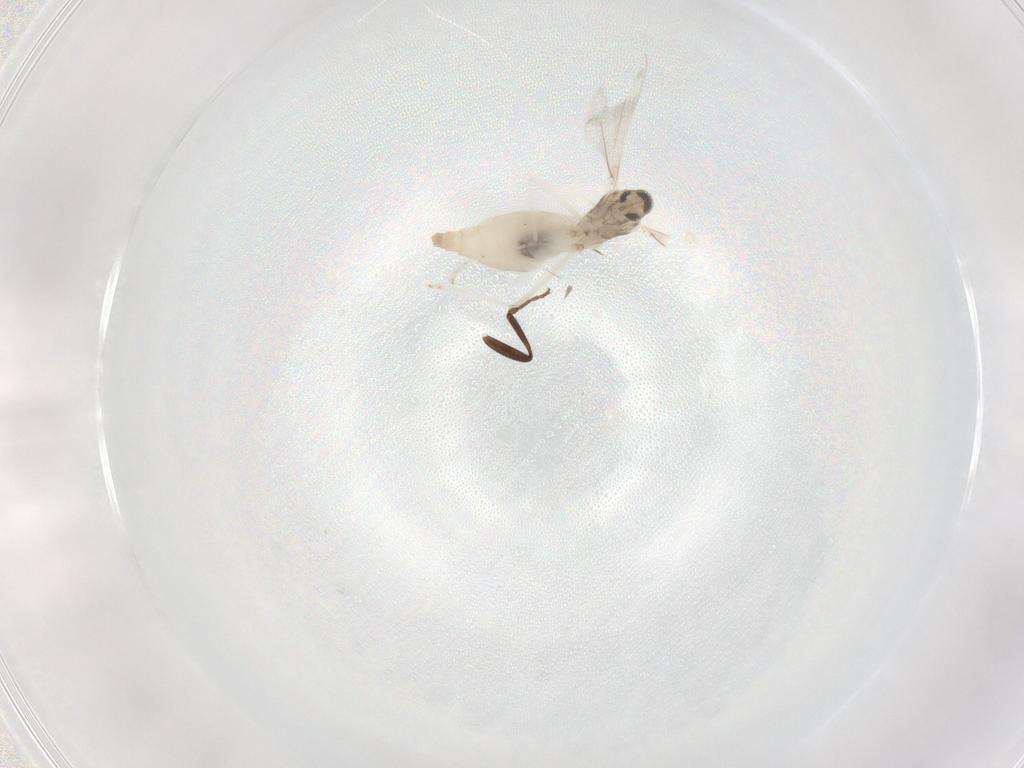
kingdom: Animalia
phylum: Arthropoda
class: Insecta
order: Diptera
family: Sphaeroceridae
